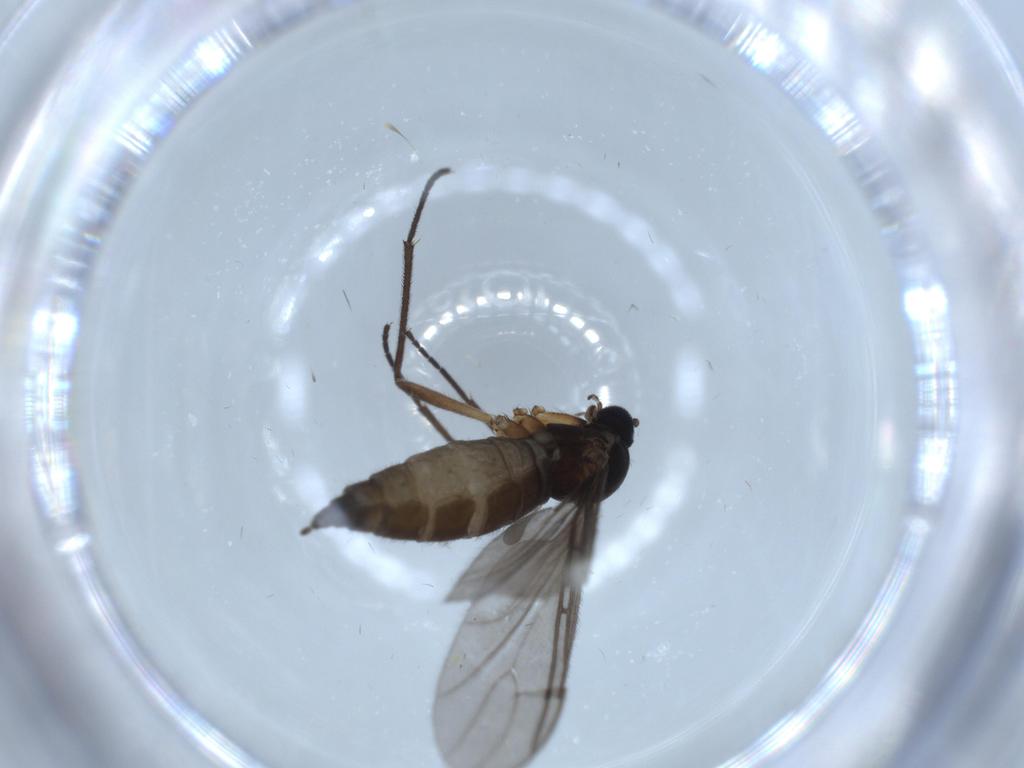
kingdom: Animalia
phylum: Arthropoda
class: Insecta
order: Diptera
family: Sciaridae
